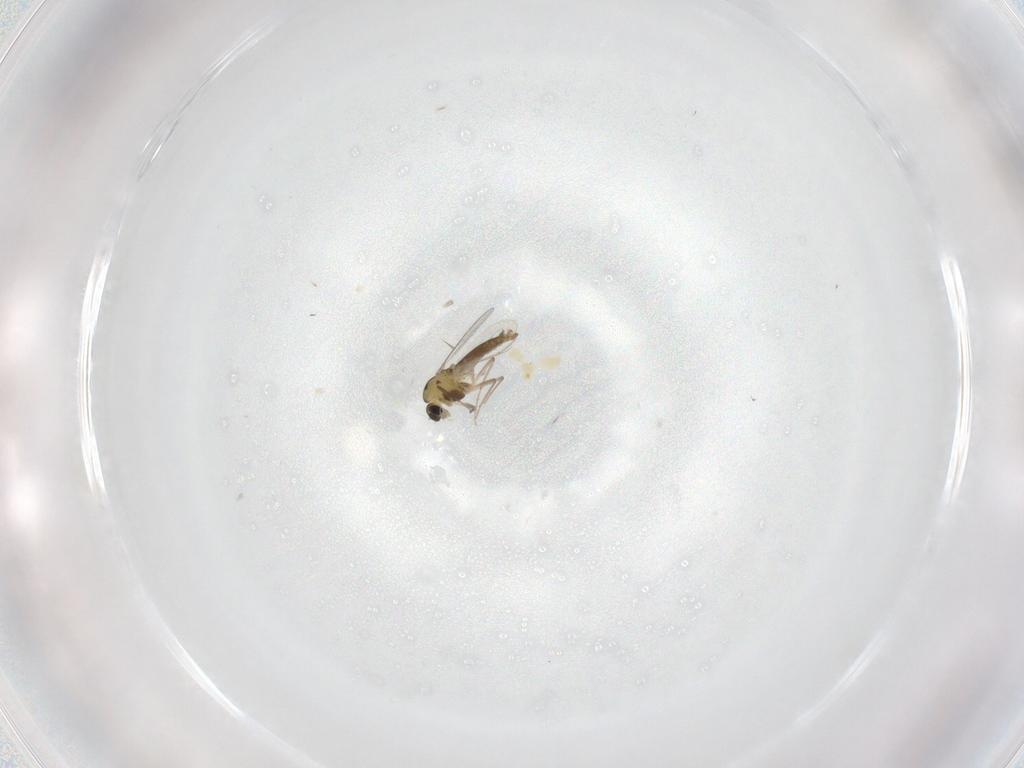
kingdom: Animalia
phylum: Arthropoda
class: Insecta
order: Diptera
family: Chironomidae
